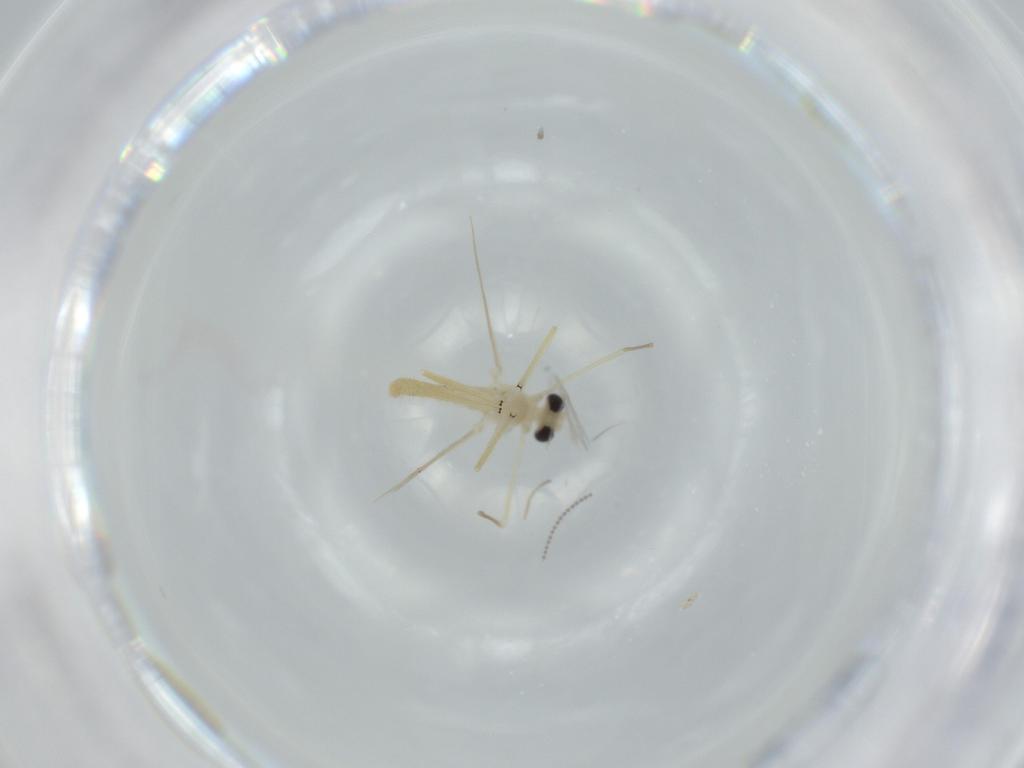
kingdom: Animalia
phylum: Arthropoda
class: Insecta
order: Diptera
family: Chironomidae
